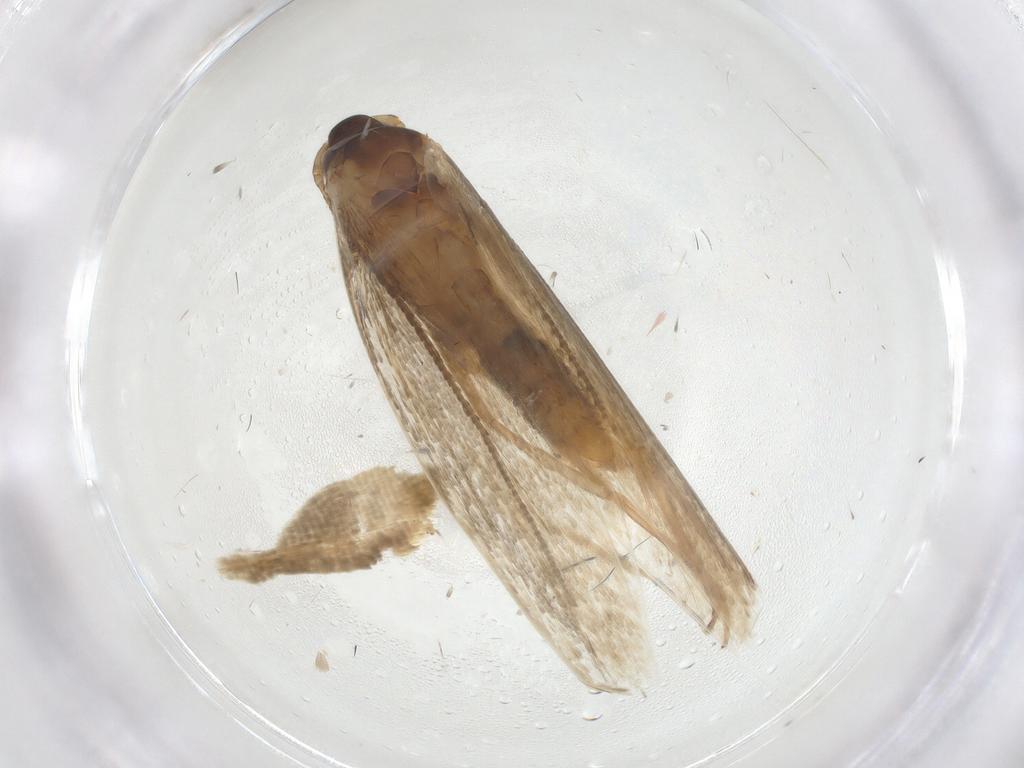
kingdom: Animalia
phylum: Arthropoda
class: Insecta
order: Lepidoptera
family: Erebidae
